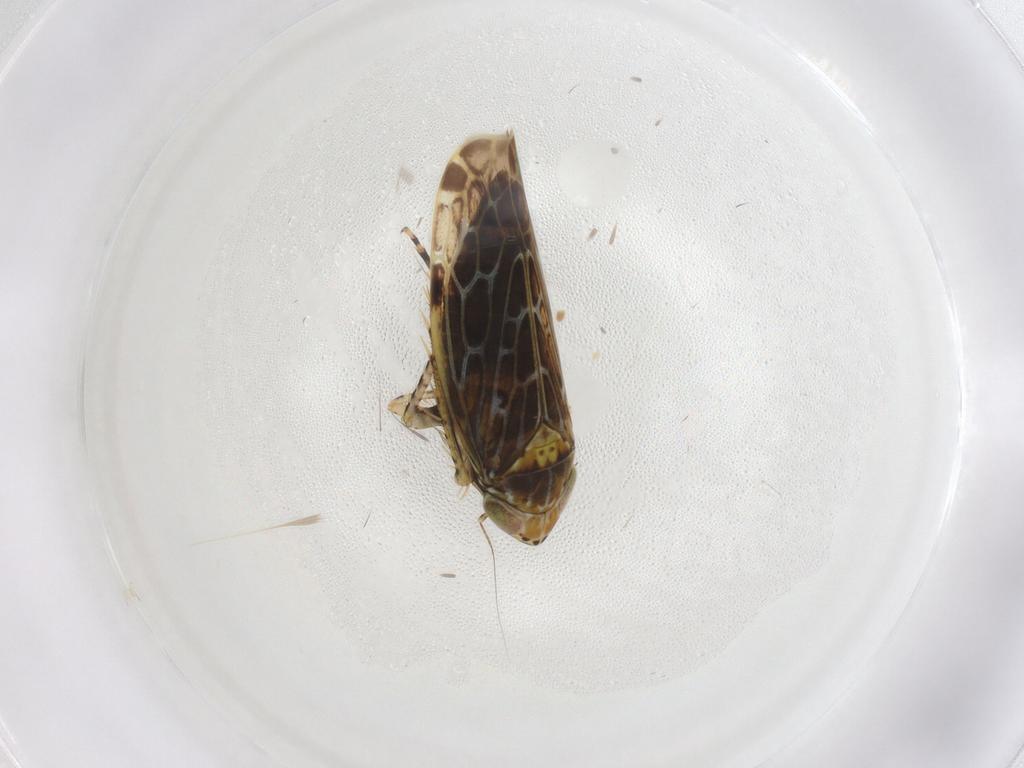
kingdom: Animalia
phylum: Arthropoda
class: Insecta
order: Hemiptera
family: Cicadellidae
